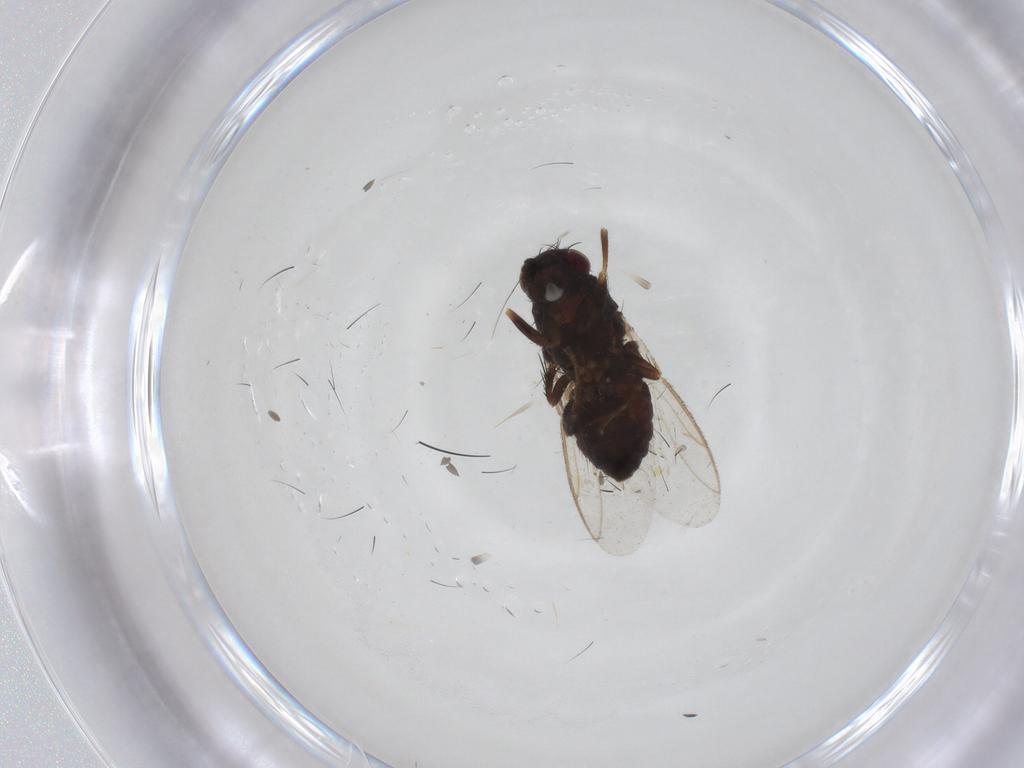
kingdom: Animalia
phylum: Arthropoda
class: Insecta
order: Diptera
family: Sphaeroceridae
